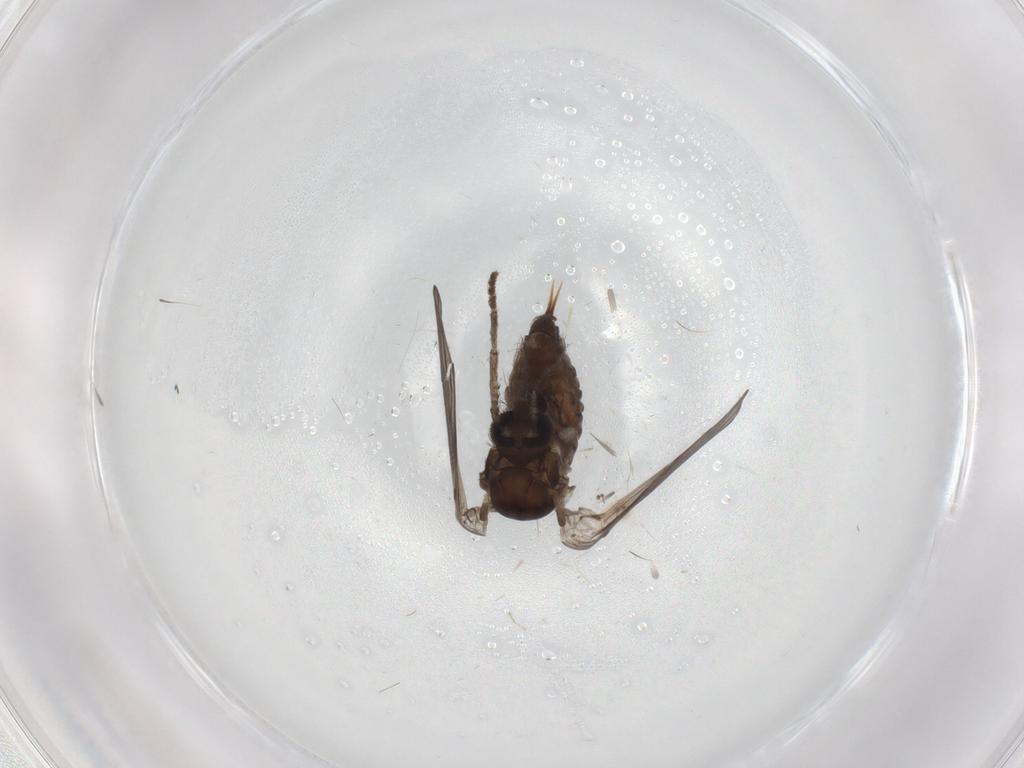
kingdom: Animalia
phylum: Arthropoda
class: Insecta
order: Diptera
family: Psychodidae
